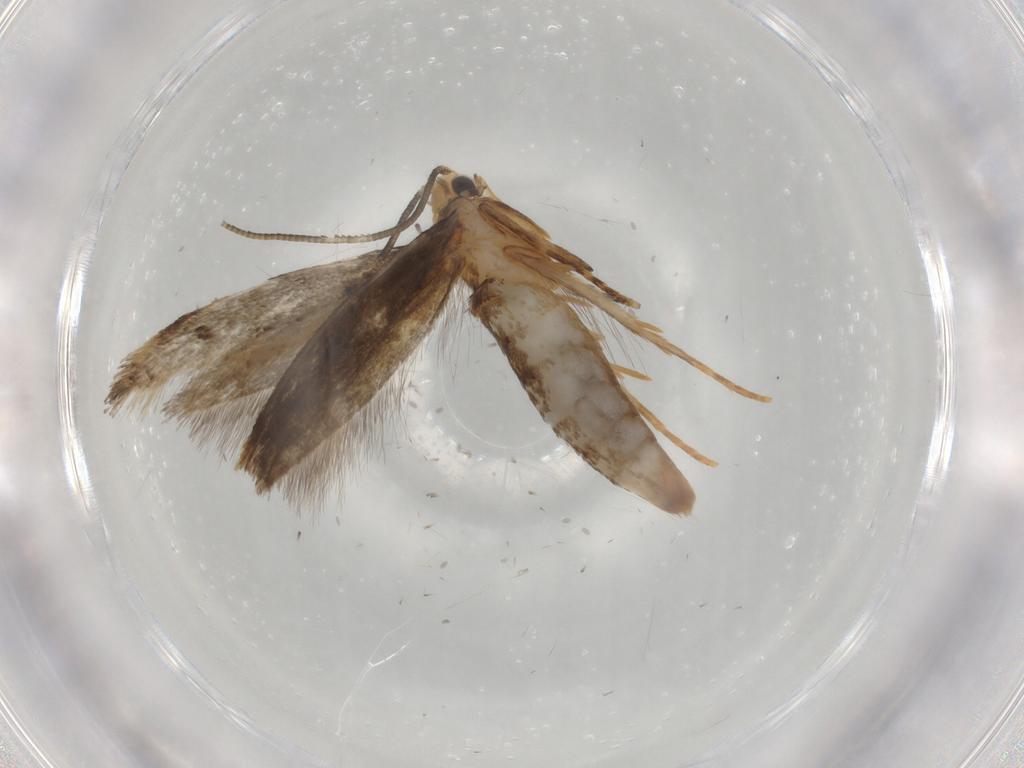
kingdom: Animalia
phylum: Arthropoda
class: Insecta
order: Lepidoptera
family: Tineidae
